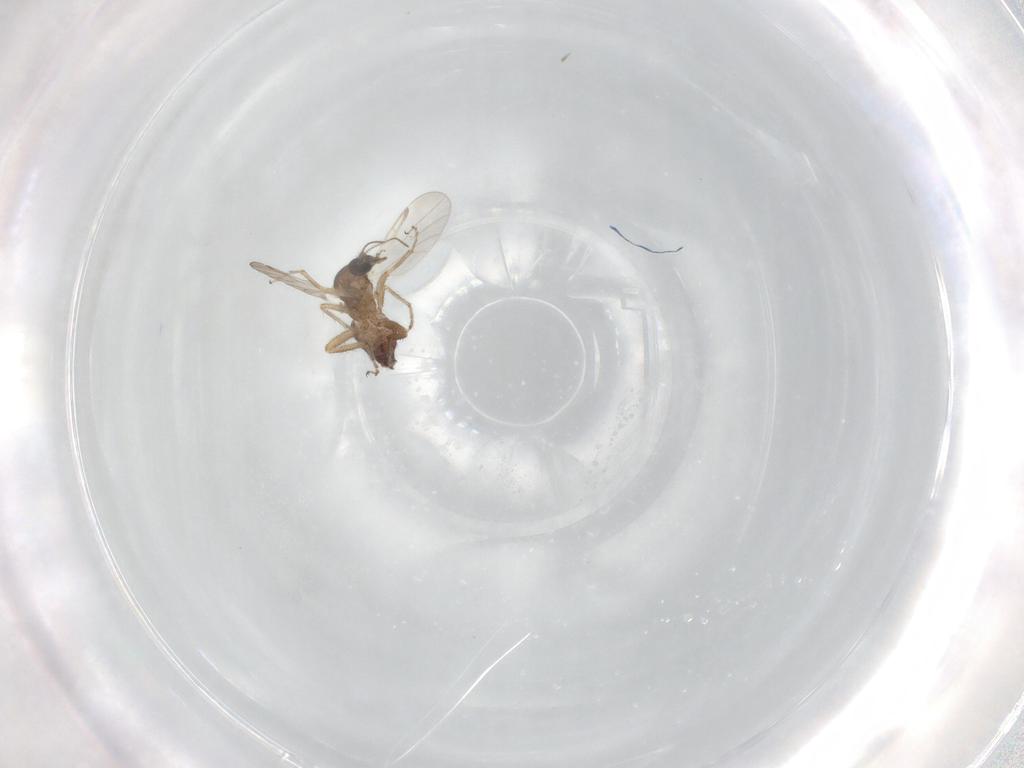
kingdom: Animalia
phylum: Arthropoda
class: Insecta
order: Diptera
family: Ceratopogonidae
